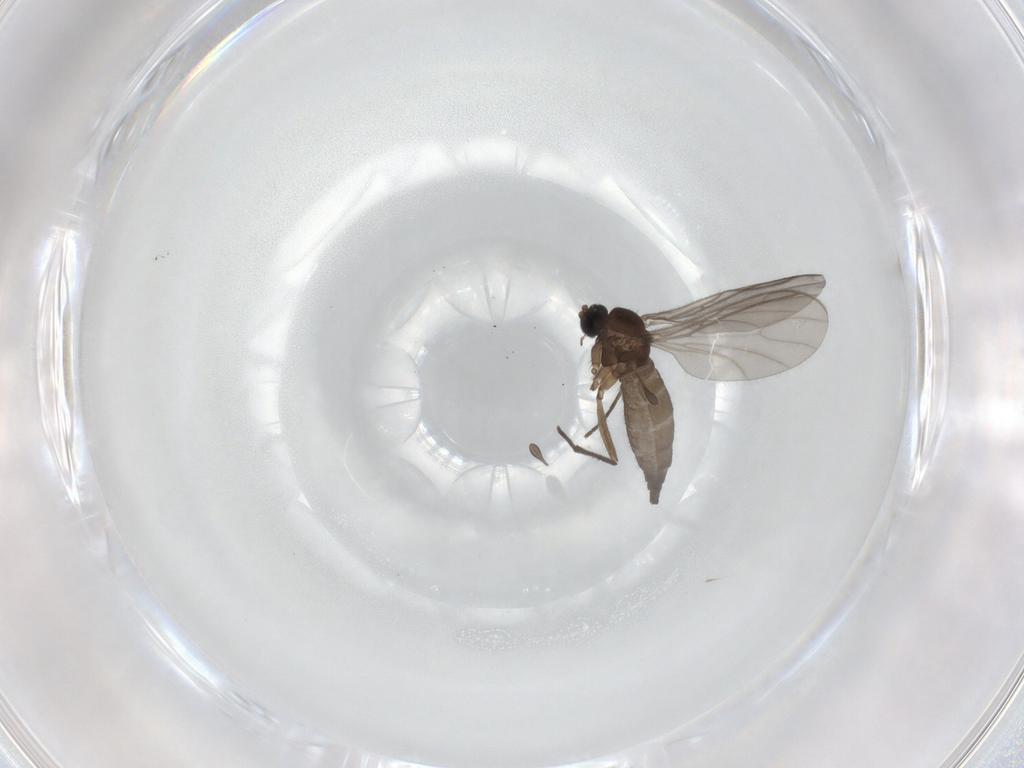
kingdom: Animalia
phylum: Arthropoda
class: Insecta
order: Diptera
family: Sciaridae
